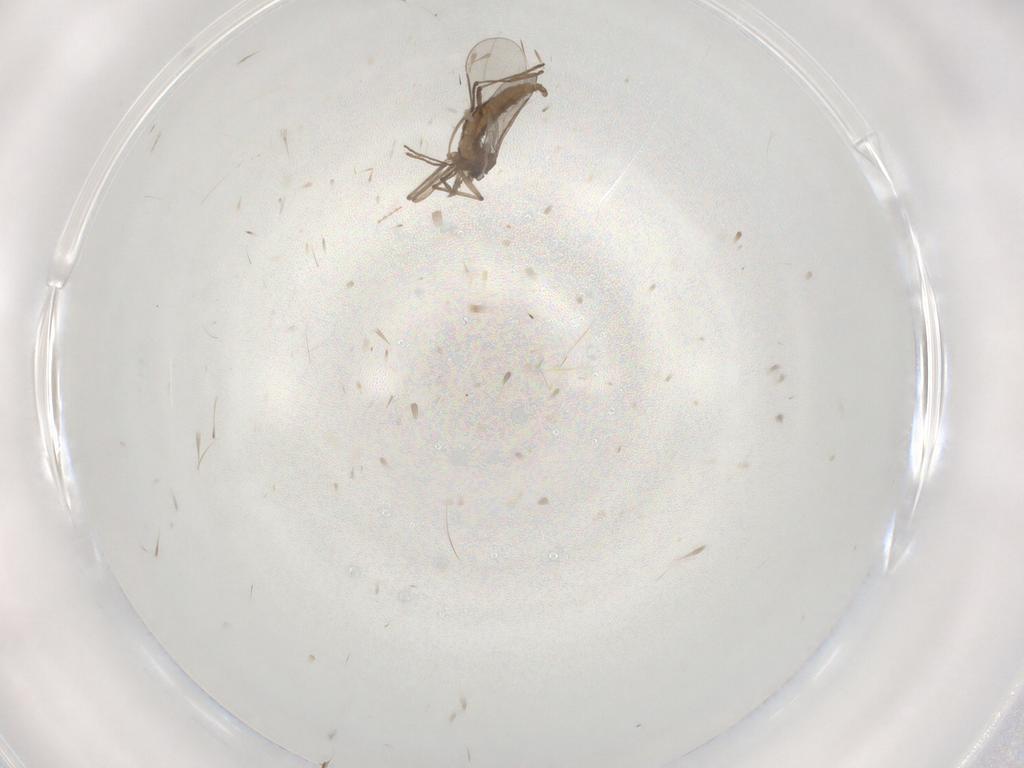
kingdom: Animalia
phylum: Arthropoda
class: Insecta
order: Diptera
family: Cecidomyiidae
